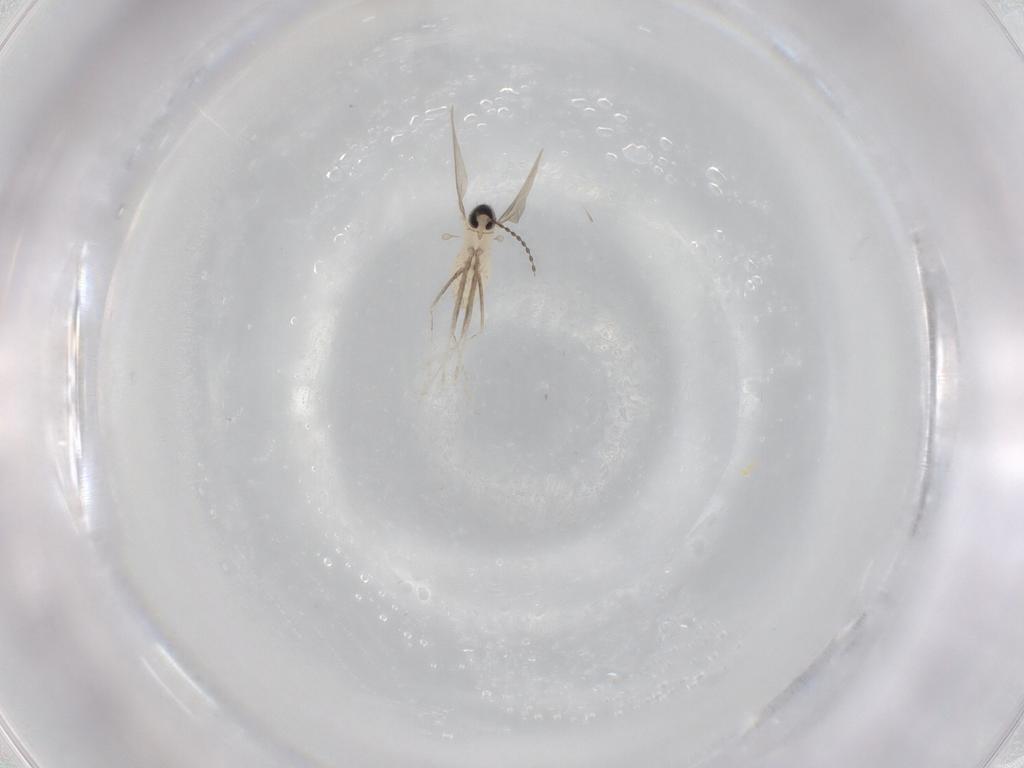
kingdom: Animalia
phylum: Arthropoda
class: Insecta
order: Diptera
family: Cecidomyiidae
